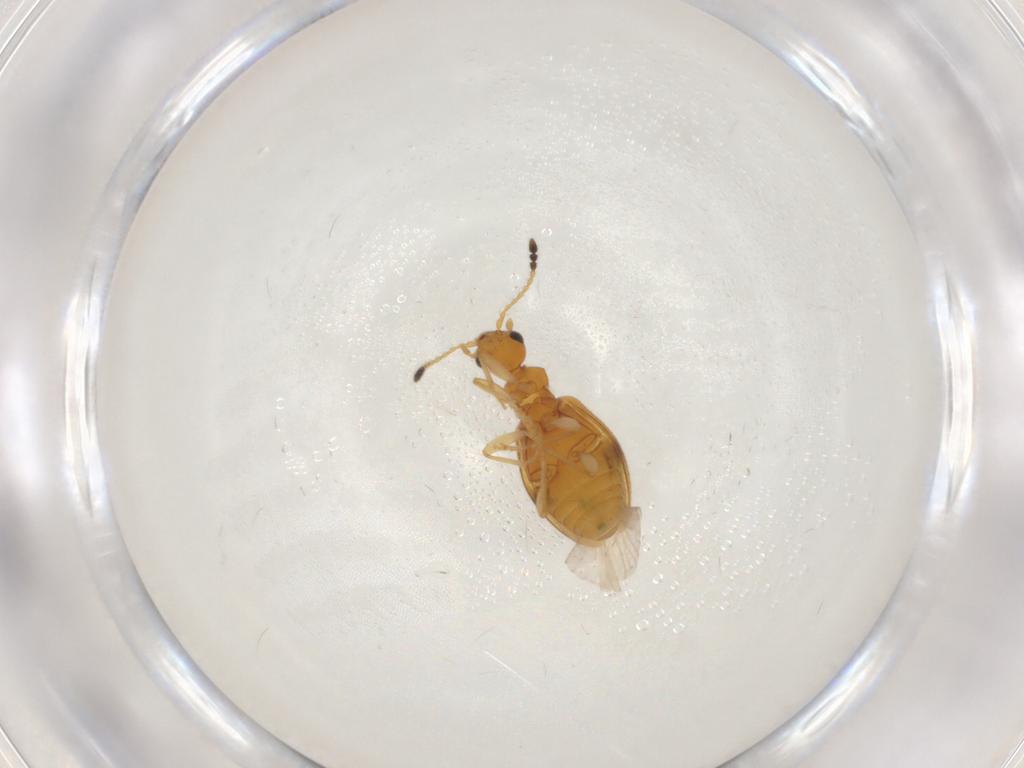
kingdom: Animalia
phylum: Arthropoda
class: Insecta
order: Coleoptera
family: Anthicidae
